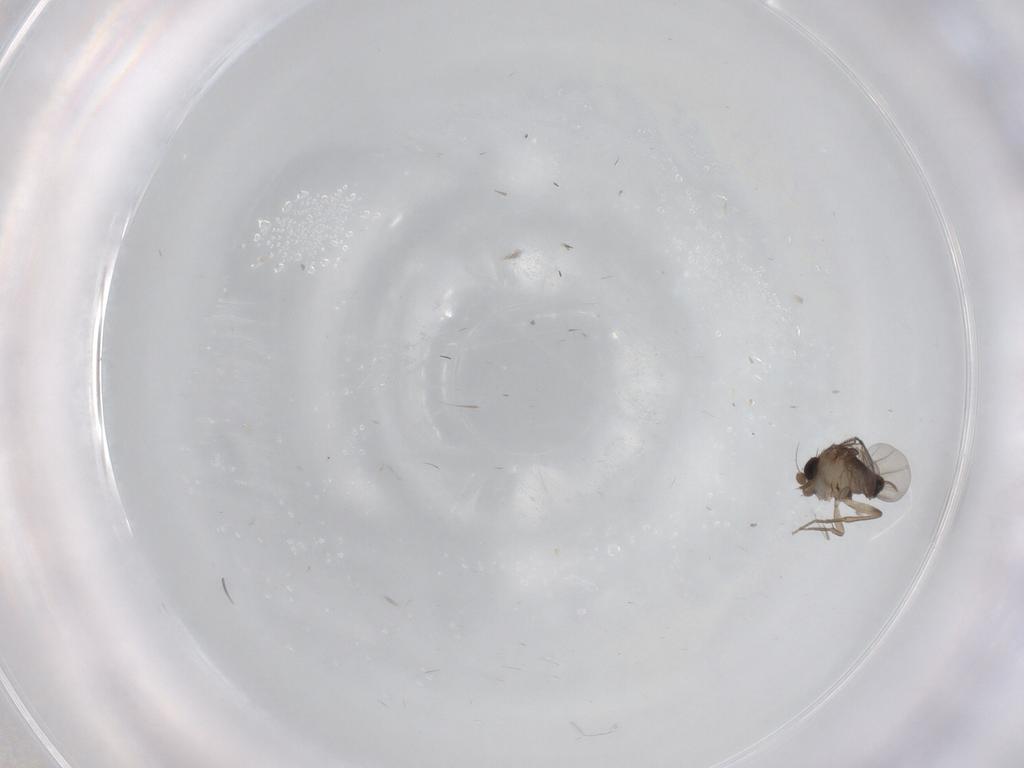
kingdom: Animalia
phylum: Arthropoda
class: Insecta
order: Diptera
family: Phoridae
